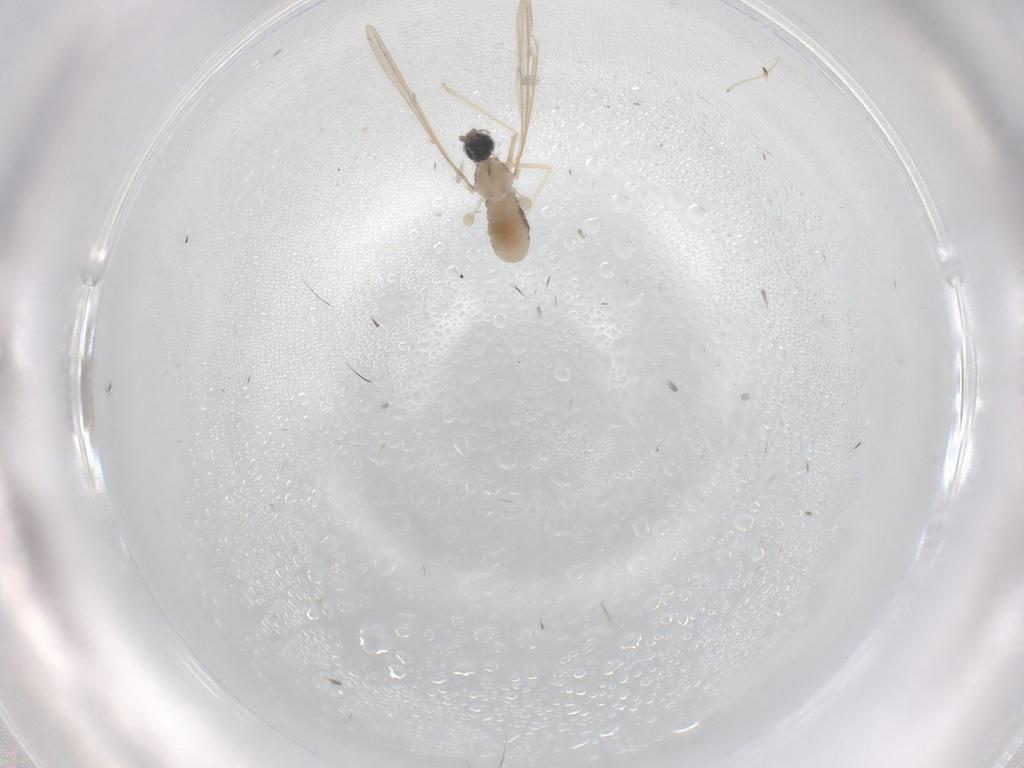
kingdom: Animalia
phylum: Arthropoda
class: Insecta
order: Diptera
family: Cecidomyiidae
